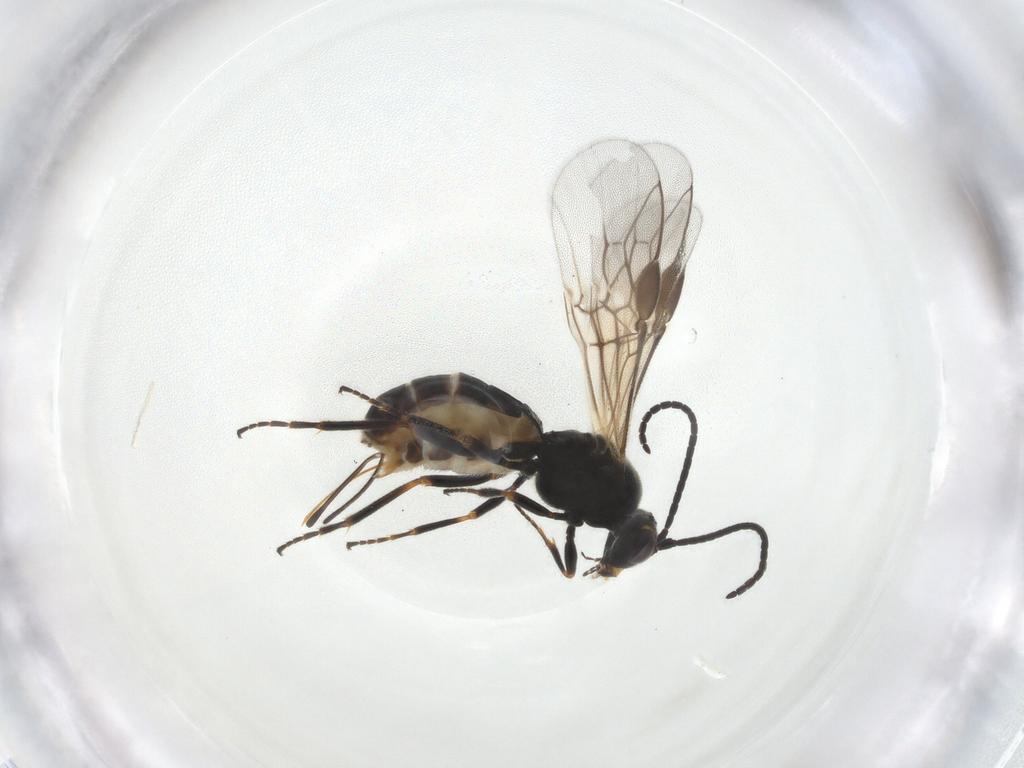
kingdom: Animalia
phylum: Arthropoda
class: Insecta
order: Hymenoptera
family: Braconidae
